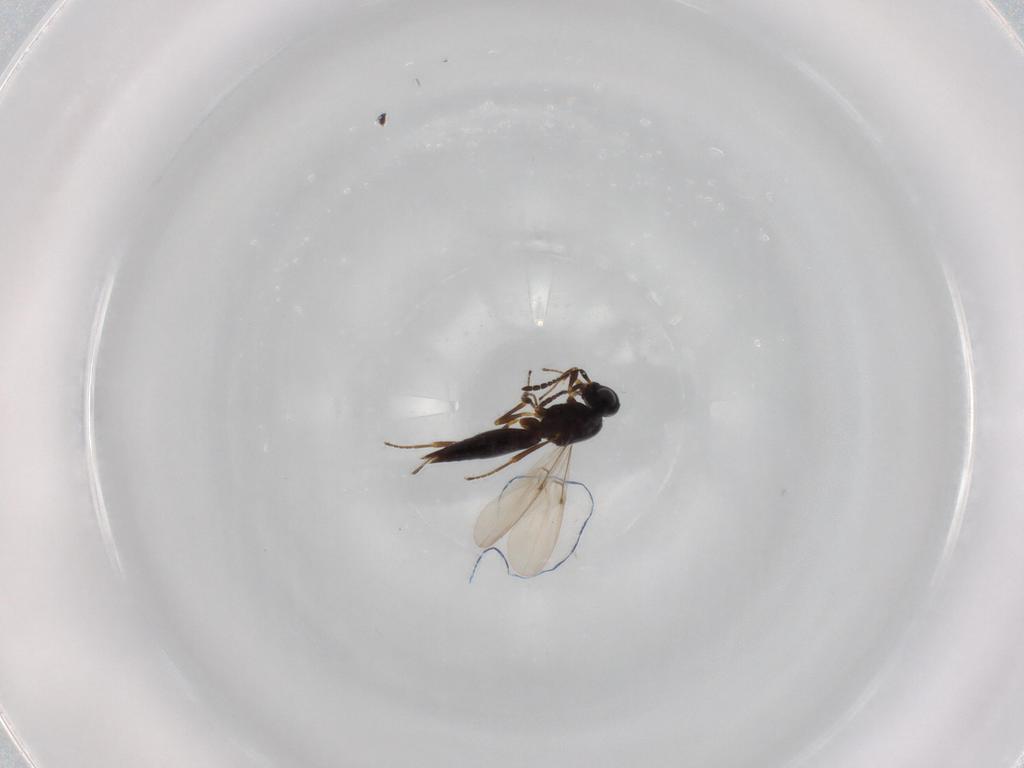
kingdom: Animalia
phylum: Arthropoda
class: Insecta
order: Hymenoptera
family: Platygastridae
